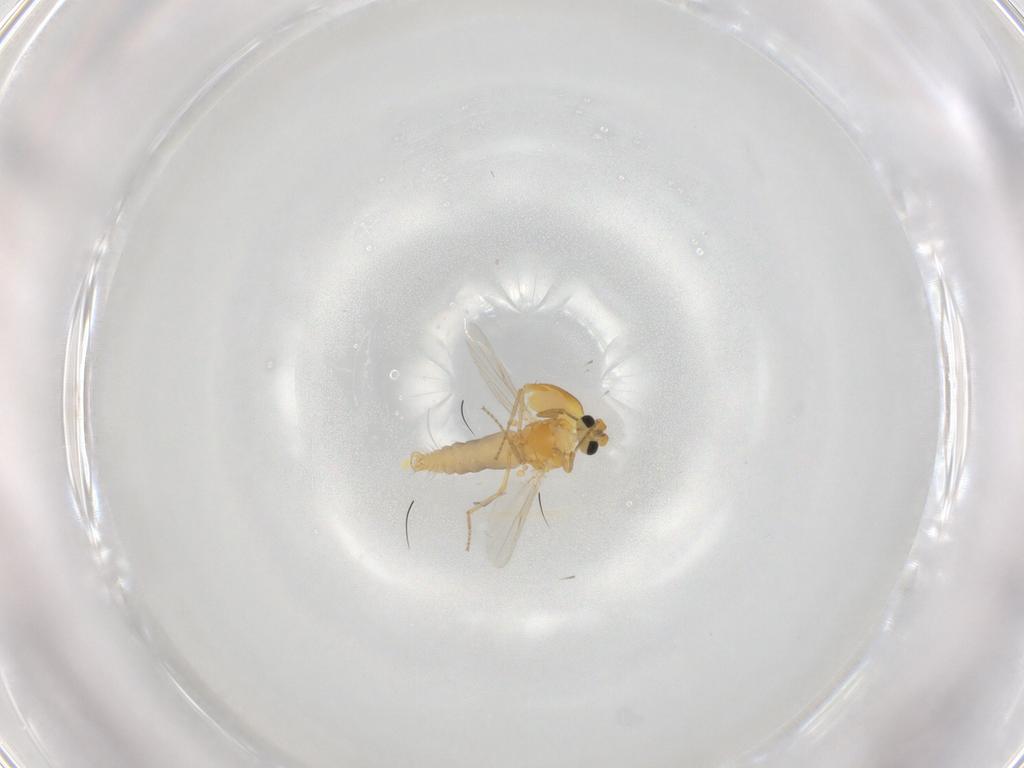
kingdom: Animalia
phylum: Arthropoda
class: Insecta
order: Diptera
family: Ceratopogonidae
